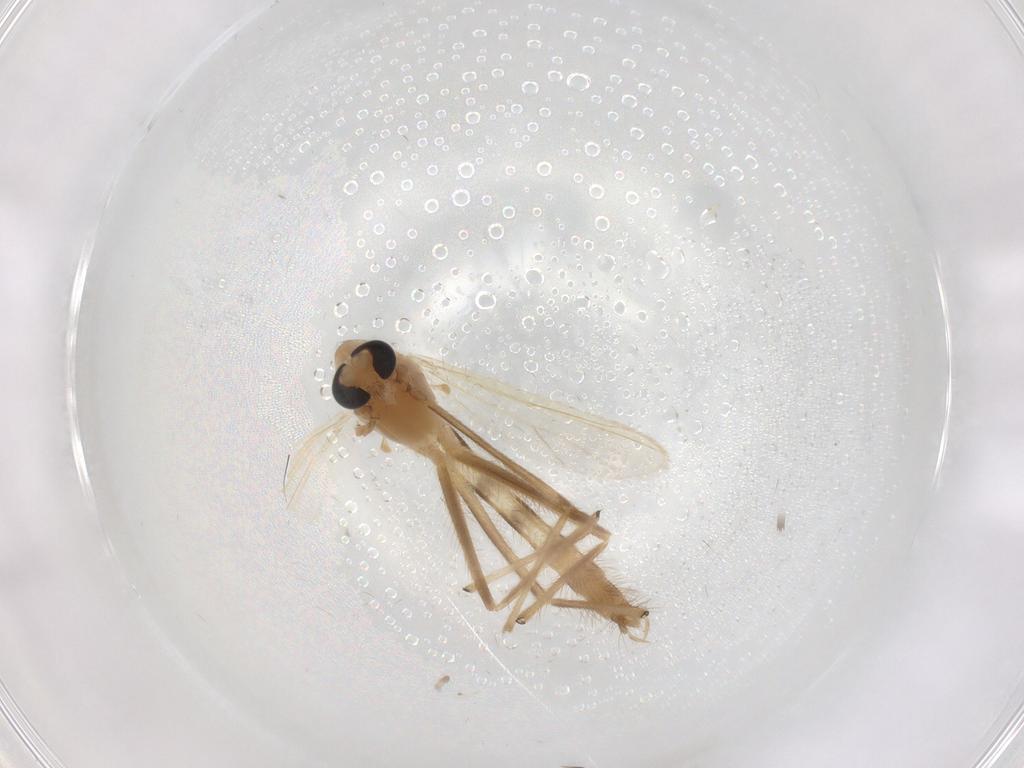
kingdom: Animalia
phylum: Arthropoda
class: Insecta
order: Diptera
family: Chironomidae
